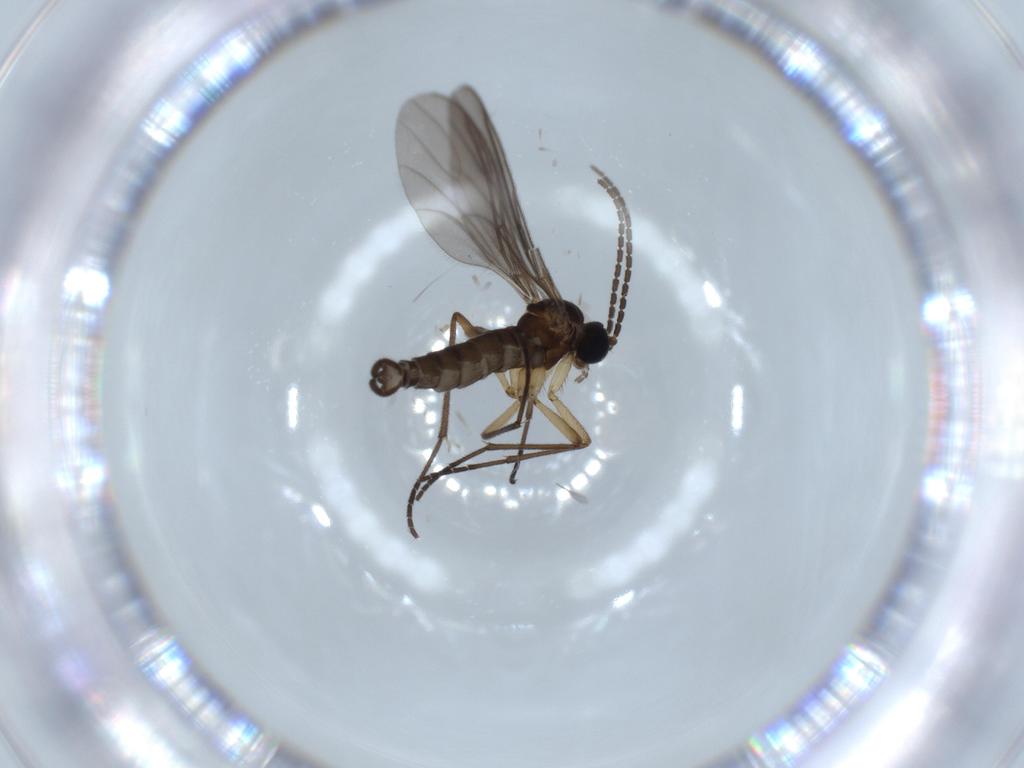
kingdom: Animalia
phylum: Arthropoda
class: Insecta
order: Diptera
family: Sciaridae
